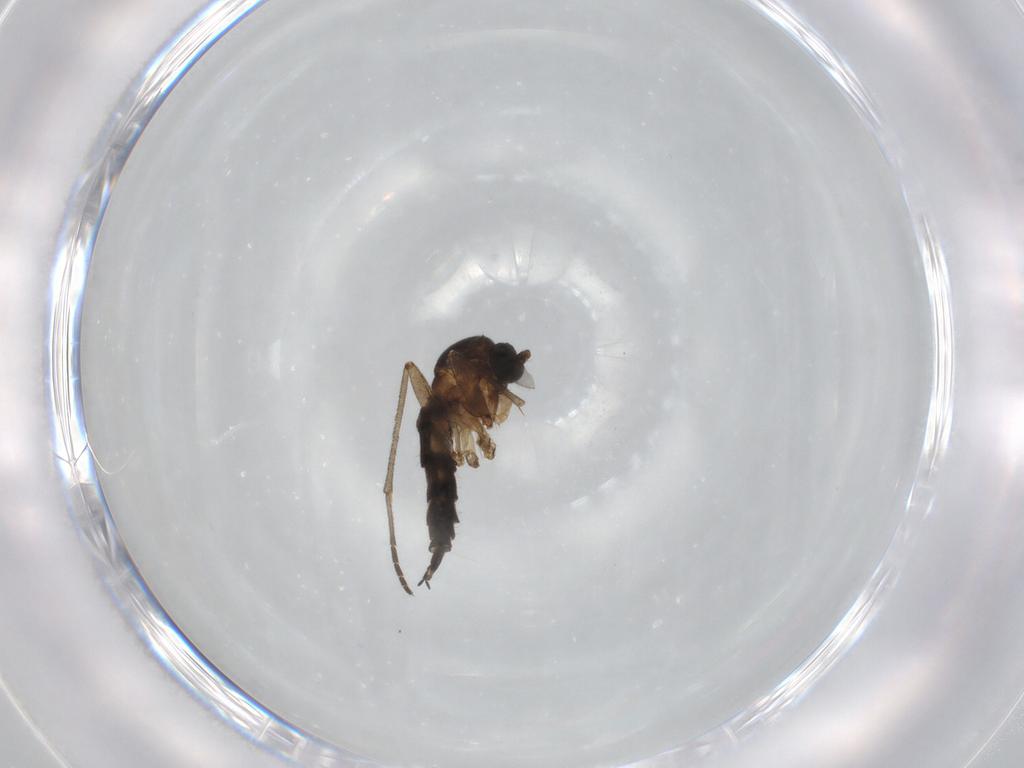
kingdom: Animalia
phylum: Arthropoda
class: Insecta
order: Diptera
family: Sciaridae
